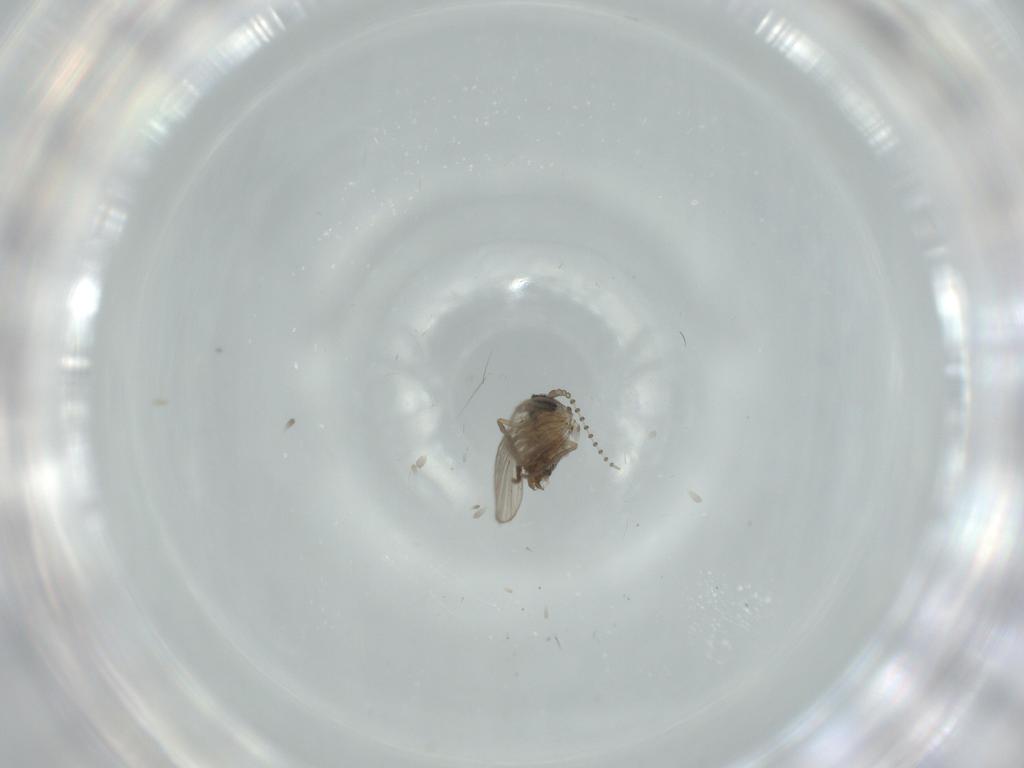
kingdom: Animalia
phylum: Arthropoda
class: Insecta
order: Diptera
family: Psychodidae
